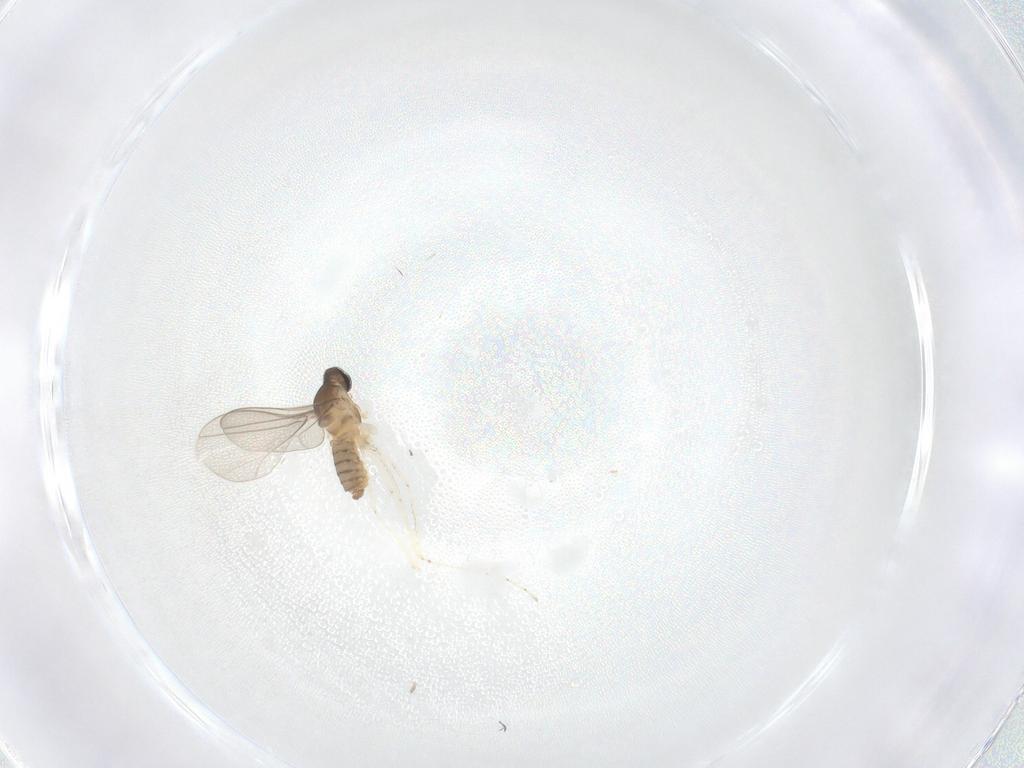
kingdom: Animalia
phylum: Arthropoda
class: Insecta
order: Diptera
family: Cecidomyiidae
